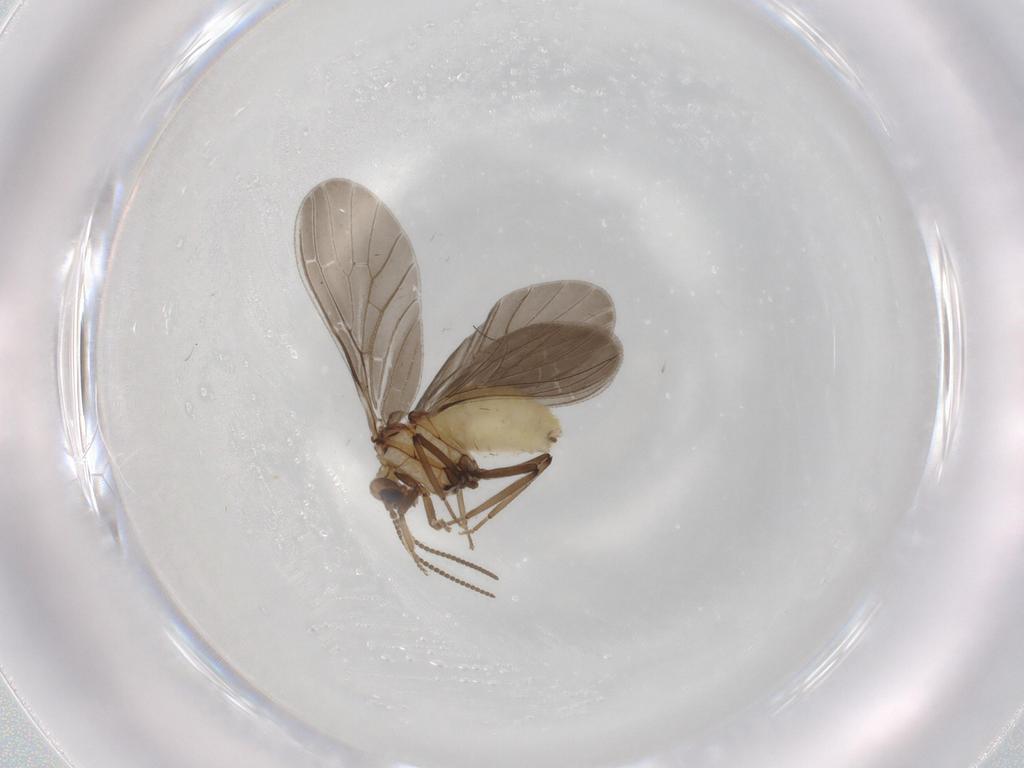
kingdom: Animalia
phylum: Arthropoda
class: Insecta
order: Neuroptera
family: Coniopterygidae
